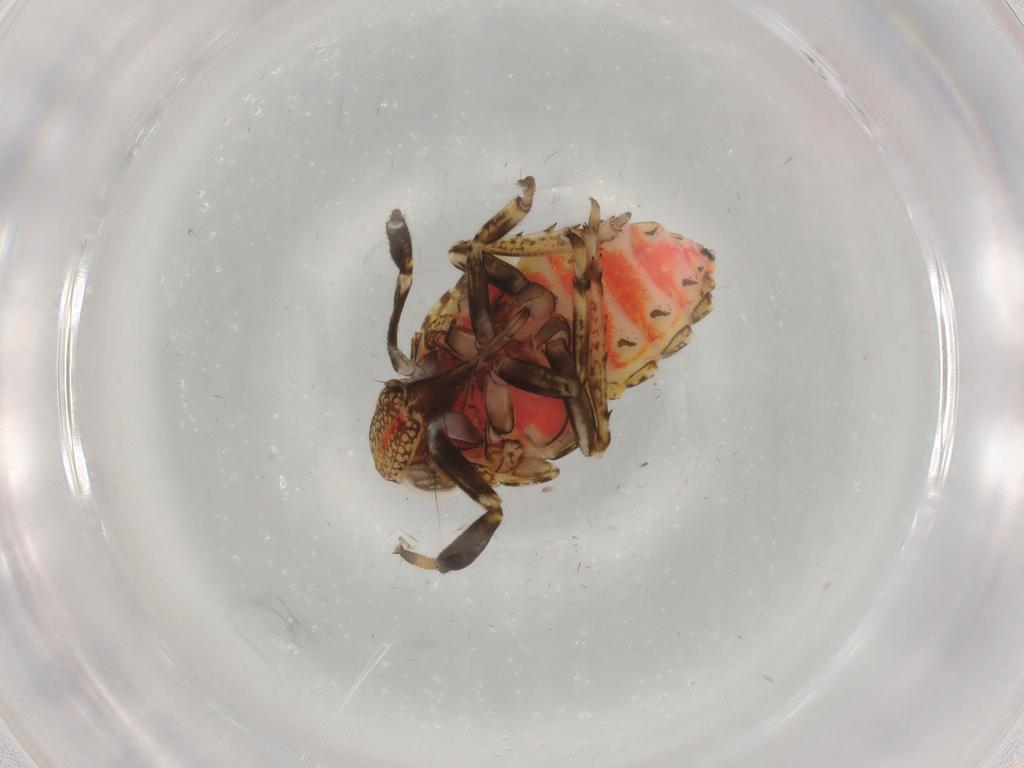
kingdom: Animalia
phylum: Arthropoda
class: Insecta
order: Hemiptera
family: Issidae
